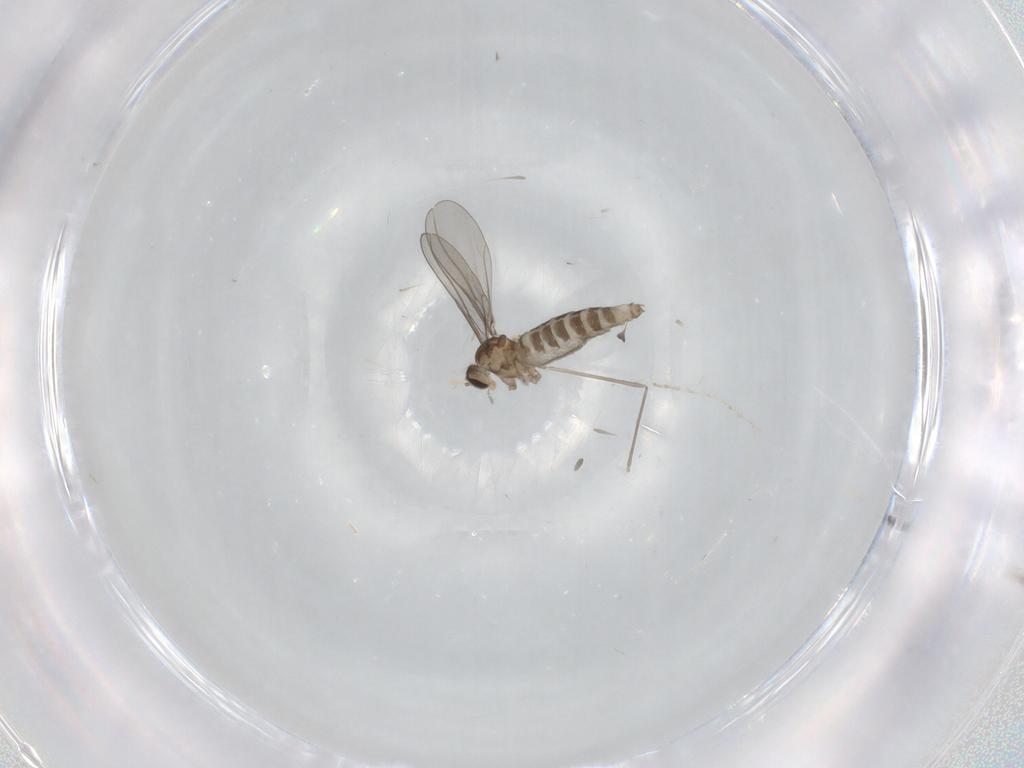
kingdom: Animalia
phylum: Arthropoda
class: Insecta
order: Diptera
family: Cecidomyiidae
